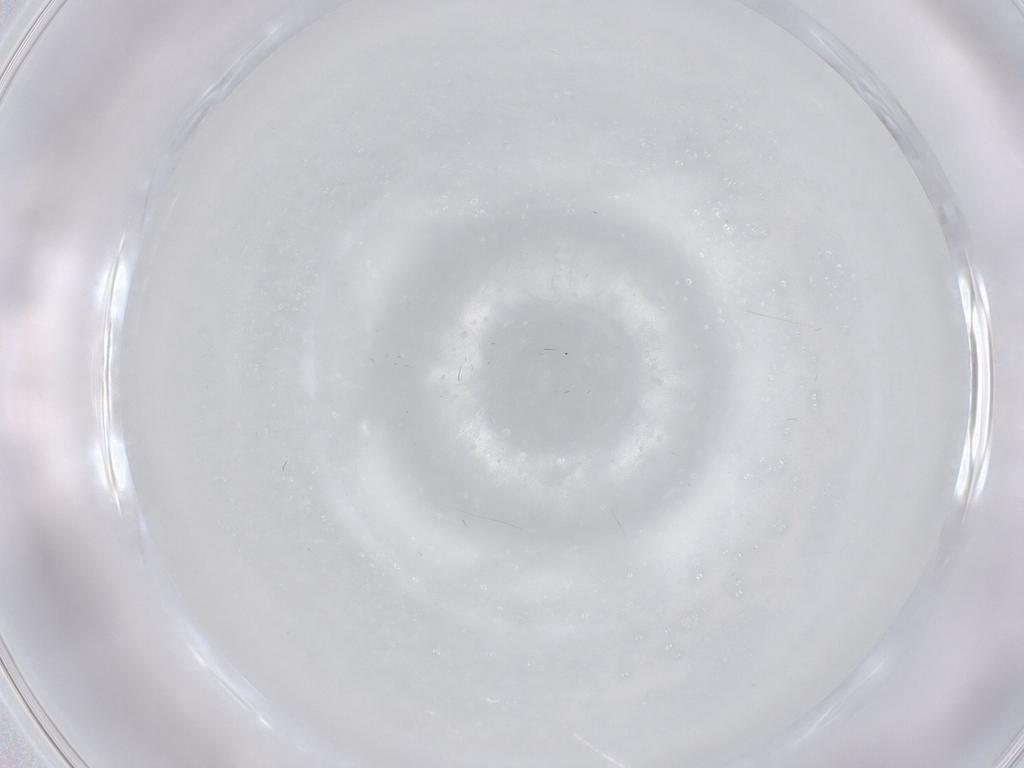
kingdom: Animalia
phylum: Arthropoda
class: Insecta
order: Diptera
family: Cecidomyiidae
